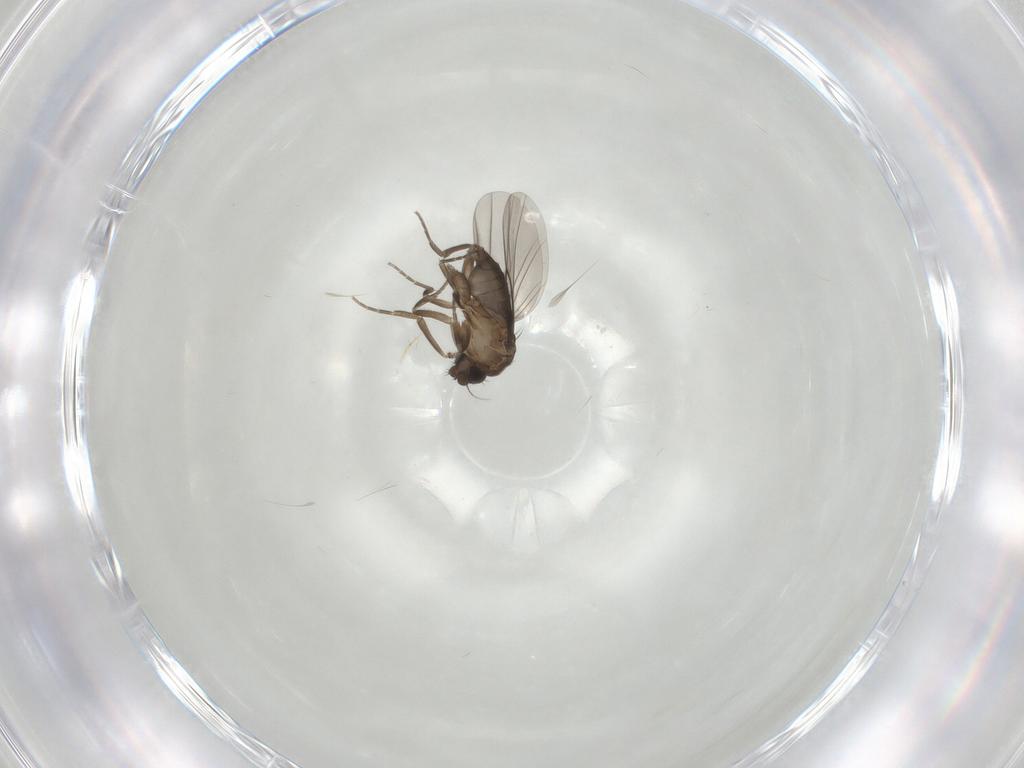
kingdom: Animalia
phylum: Arthropoda
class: Insecta
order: Diptera
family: Phoridae
